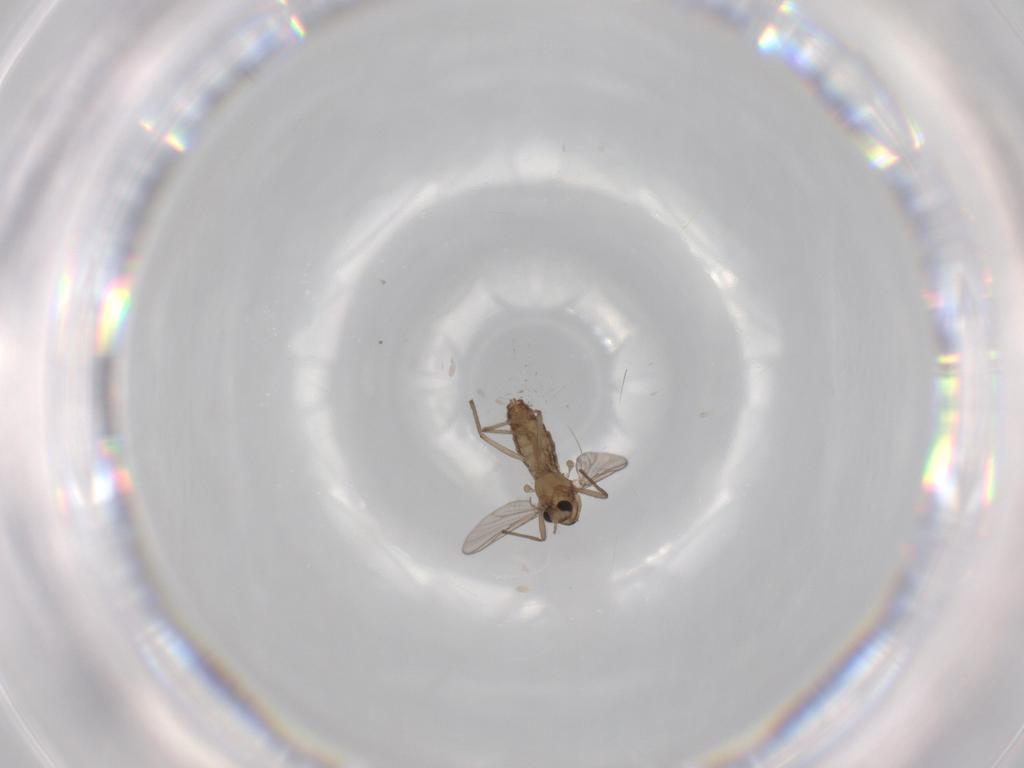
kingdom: Animalia
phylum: Arthropoda
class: Insecta
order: Diptera
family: Chironomidae
